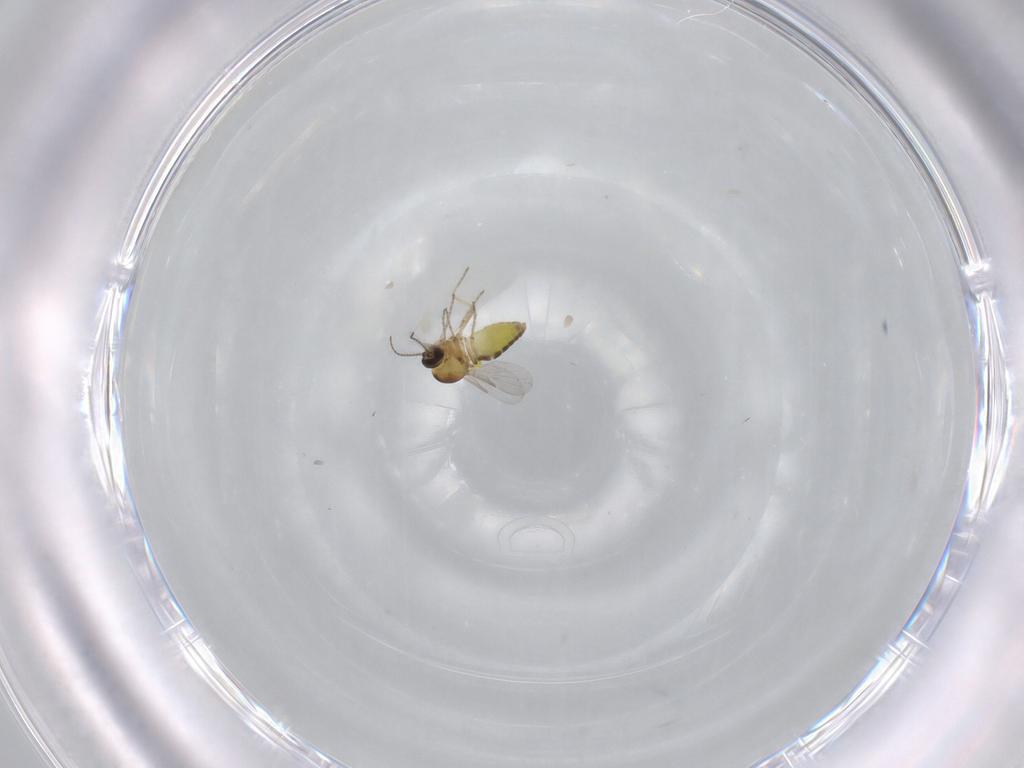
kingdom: Animalia
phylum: Arthropoda
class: Insecta
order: Diptera
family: Ceratopogonidae
